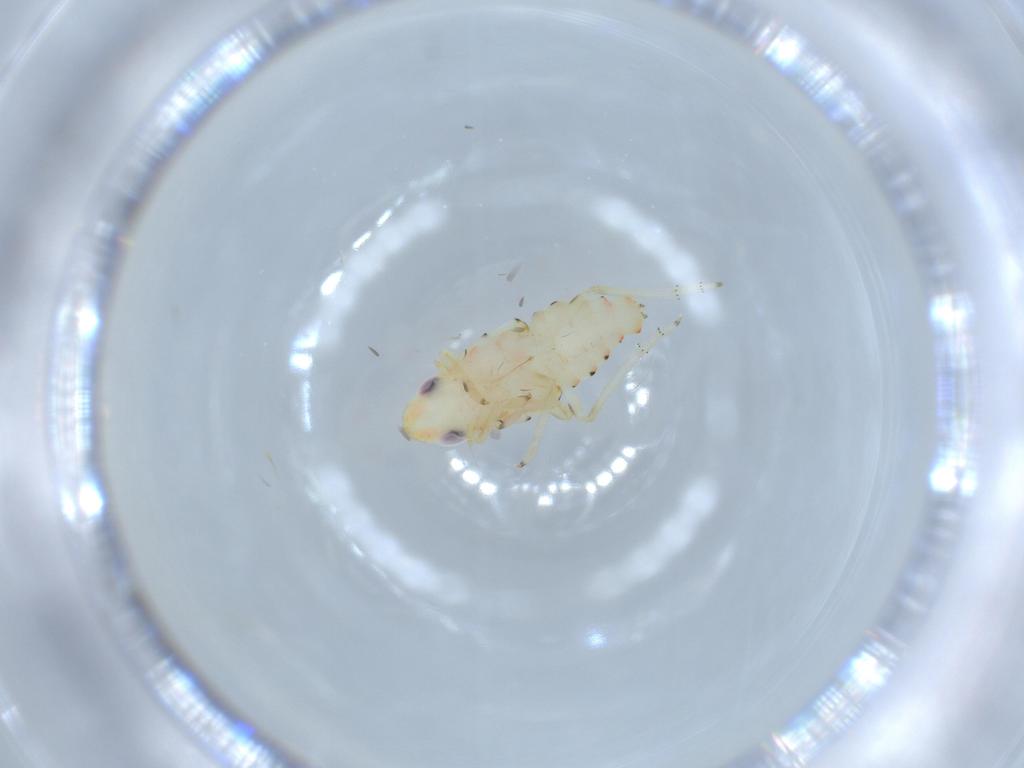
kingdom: Animalia
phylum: Arthropoda
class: Insecta
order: Hemiptera
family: Tropiduchidae
